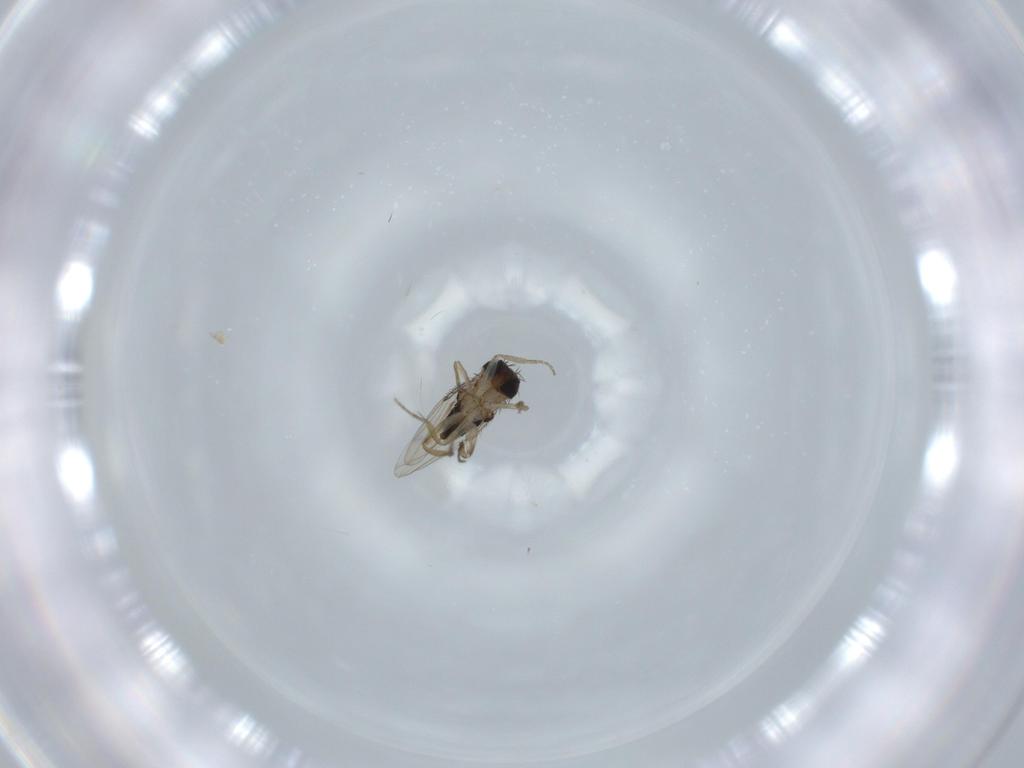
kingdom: Animalia
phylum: Arthropoda
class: Insecta
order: Diptera
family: Phoridae
